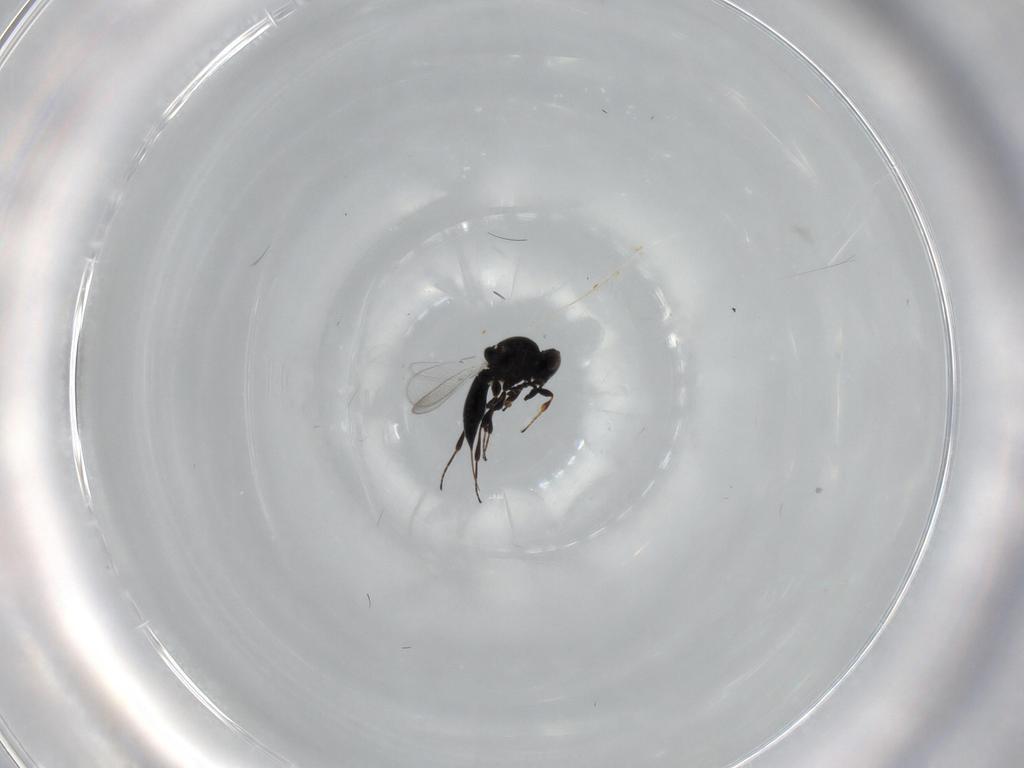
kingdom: Animalia
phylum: Arthropoda
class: Insecta
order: Hymenoptera
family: Platygastridae
